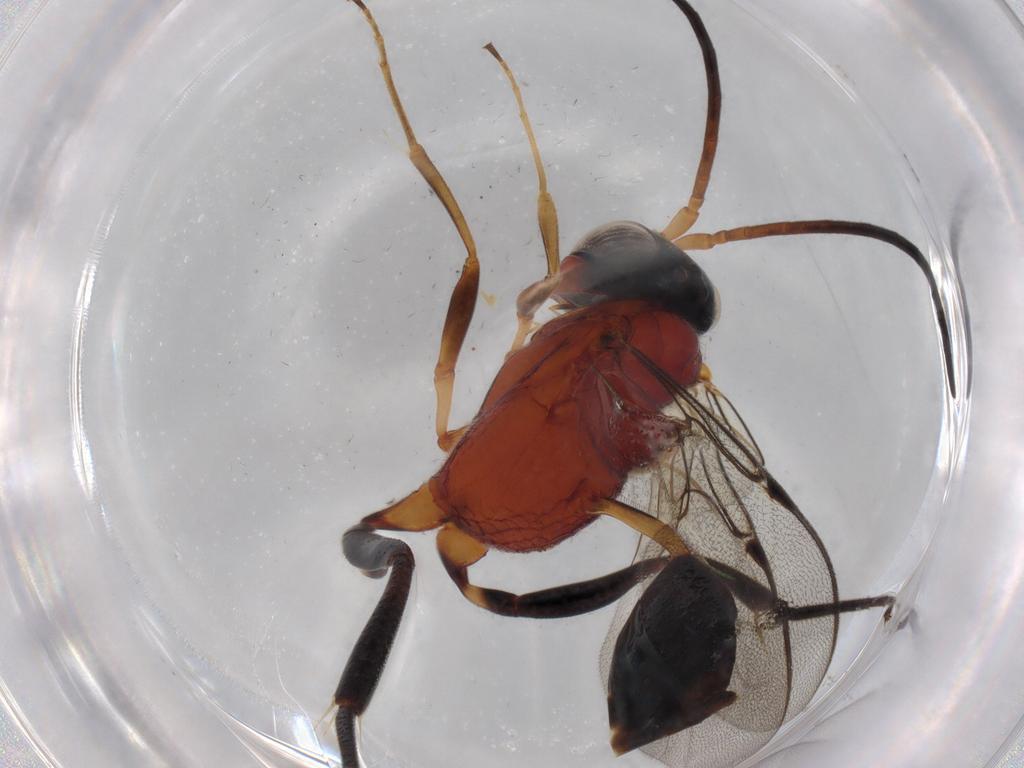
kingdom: Animalia
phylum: Arthropoda
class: Insecta
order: Hymenoptera
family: Evaniidae
